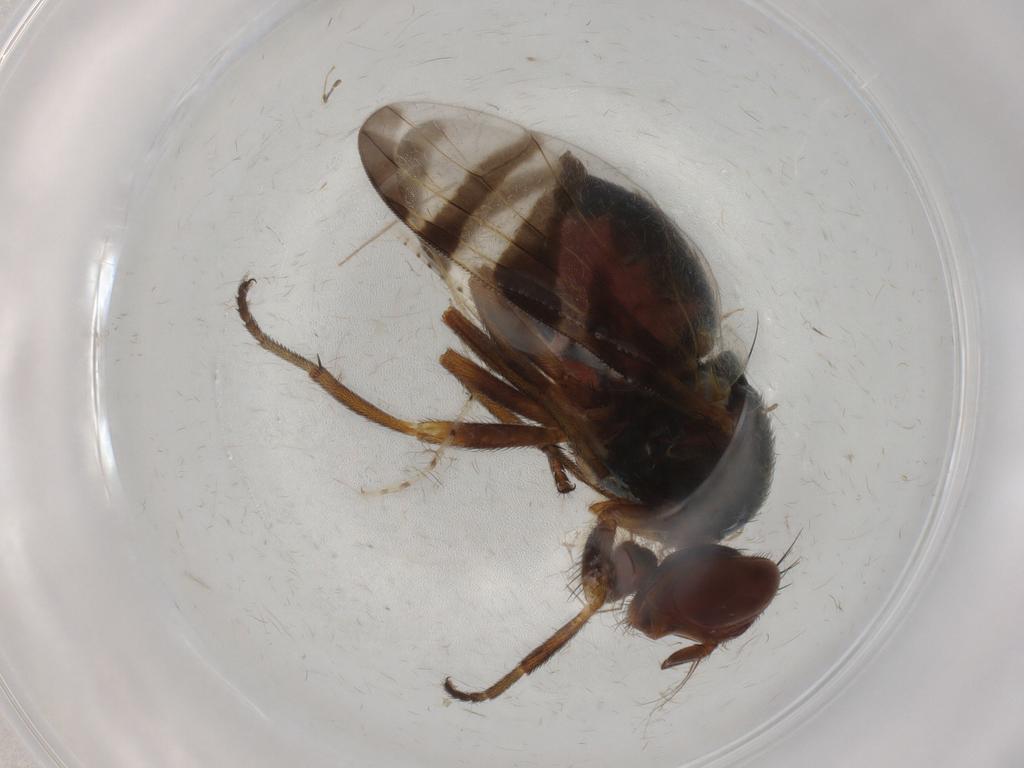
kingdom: Animalia
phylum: Arthropoda
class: Insecta
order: Diptera
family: Platystomatidae
